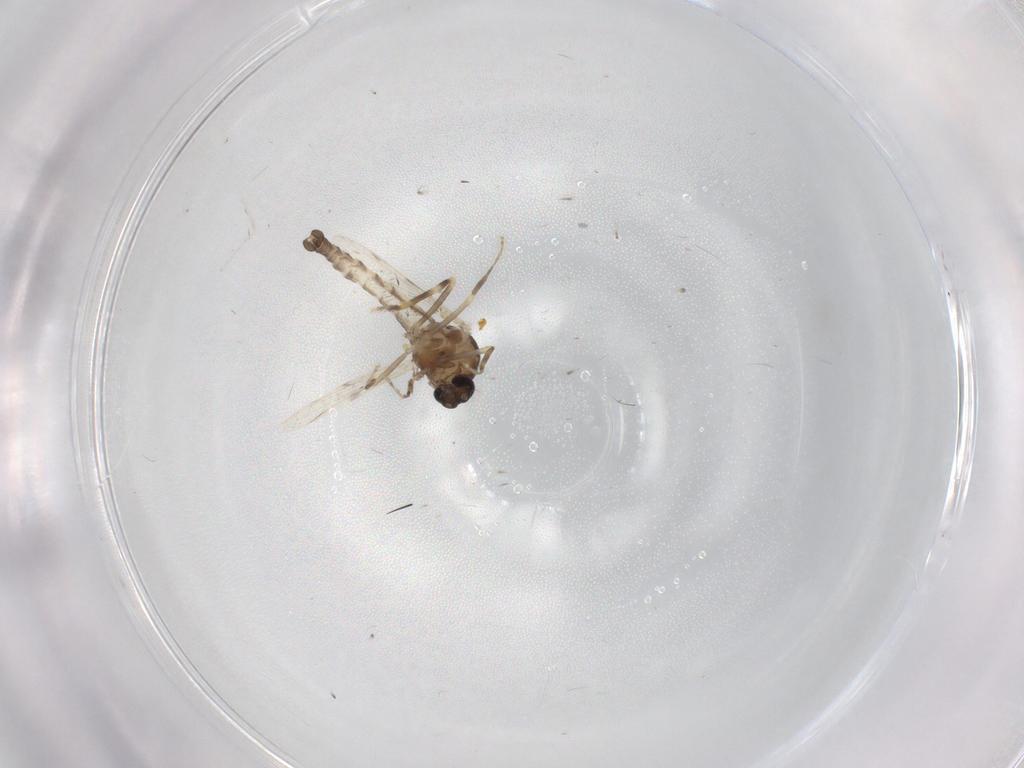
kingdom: Animalia
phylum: Arthropoda
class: Insecta
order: Diptera
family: Ceratopogonidae
